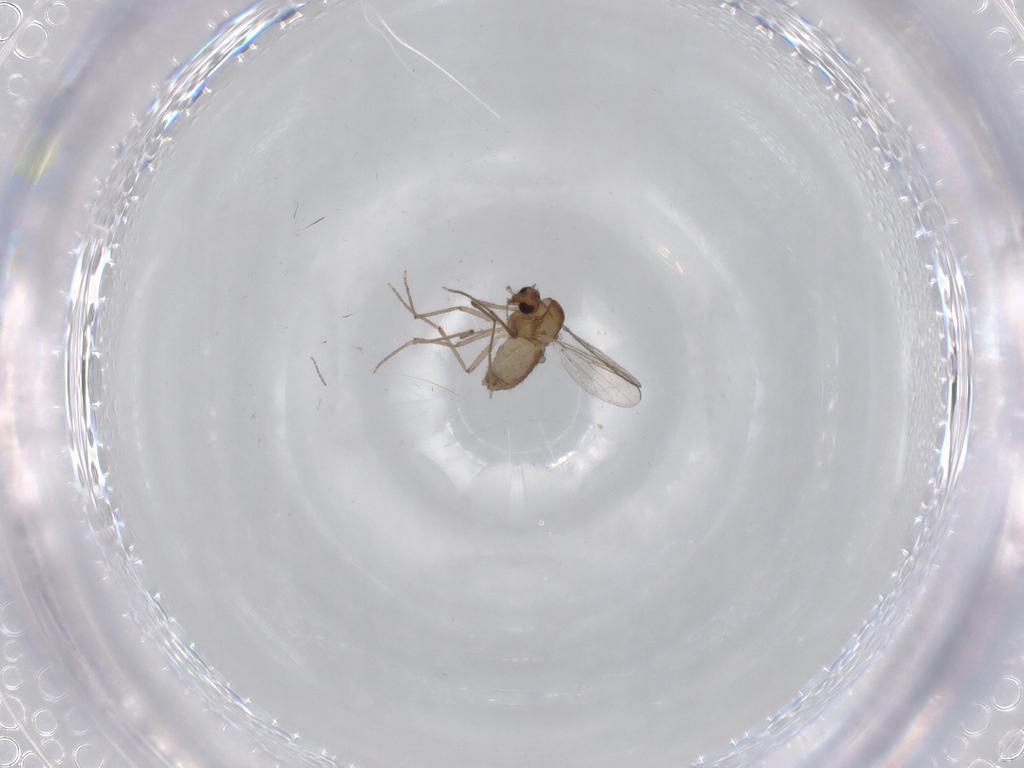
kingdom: Animalia
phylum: Arthropoda
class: Insecta
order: Diptera
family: Chironomidae
